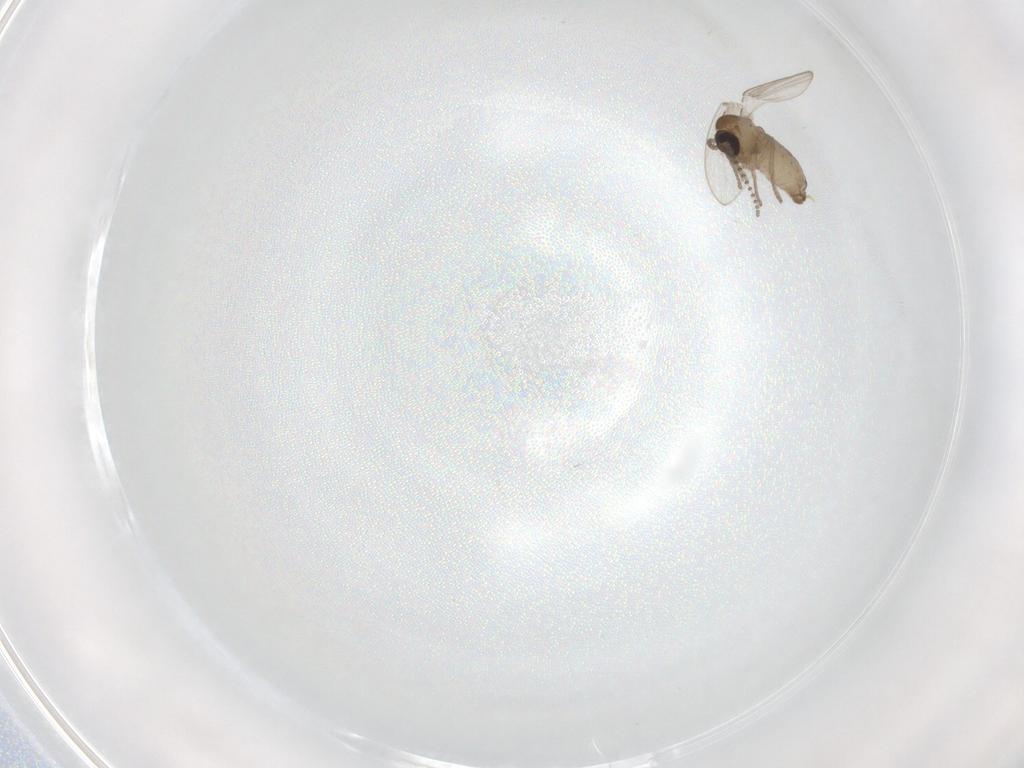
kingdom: Animalia
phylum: Arthropoda
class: Insecta
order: Diptera
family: Psychodidae
